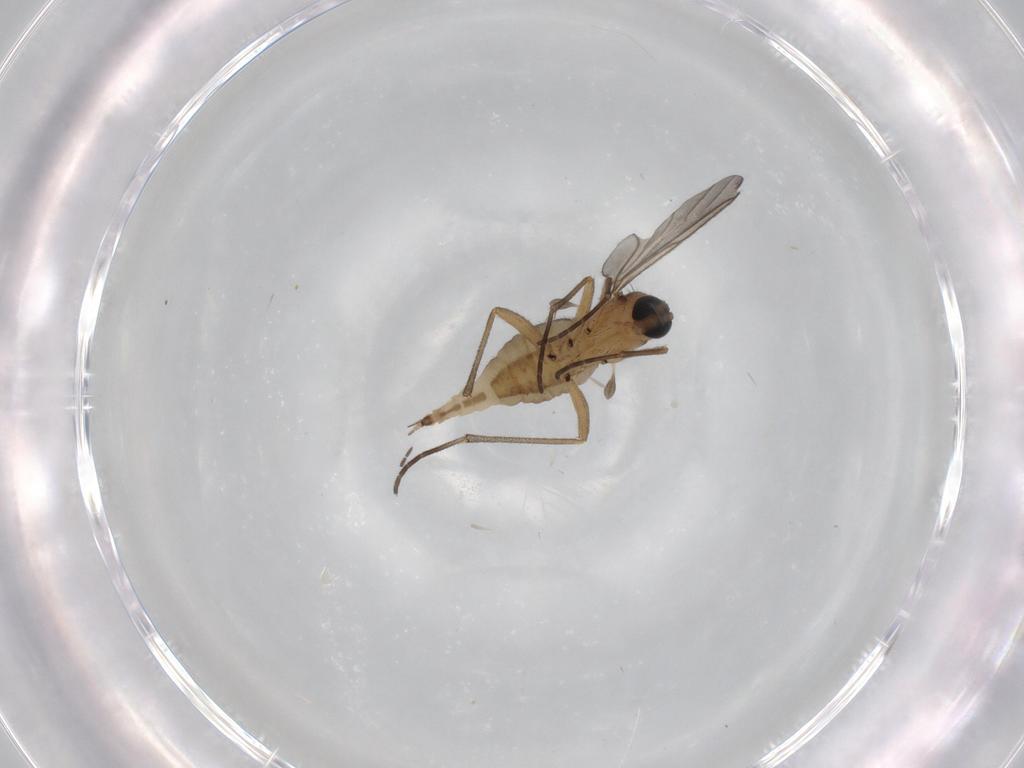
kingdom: Animalia
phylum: Arthropoda
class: Insecta
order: Diptera
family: Sciaridae
